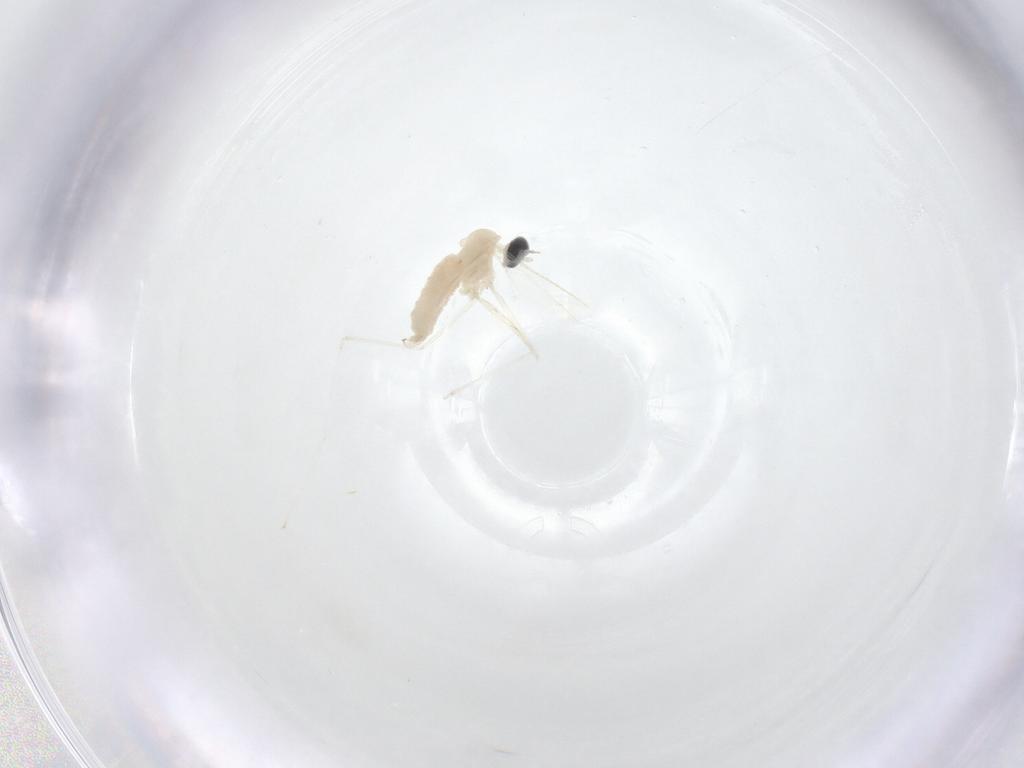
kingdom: Animalia
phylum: Arthropoda
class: Insecta
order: Diptera
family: Cecidomyiidae
